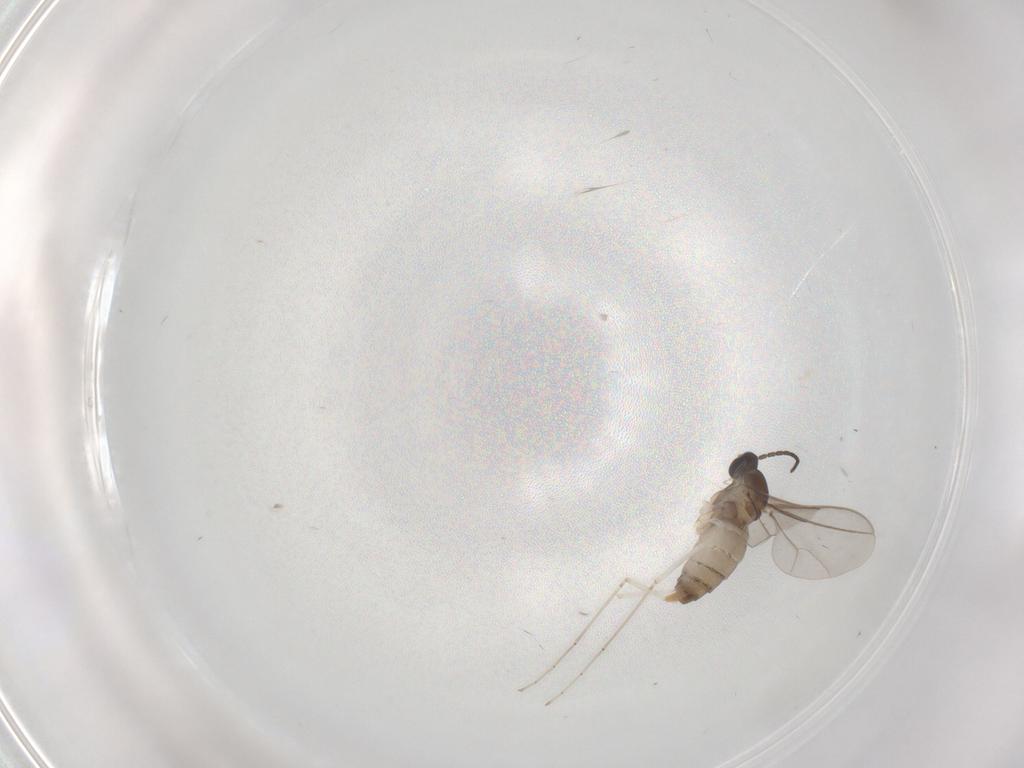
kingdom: Animalia
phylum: Arthropoda
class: Insecta
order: Diptera
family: Cecidomyiidae
